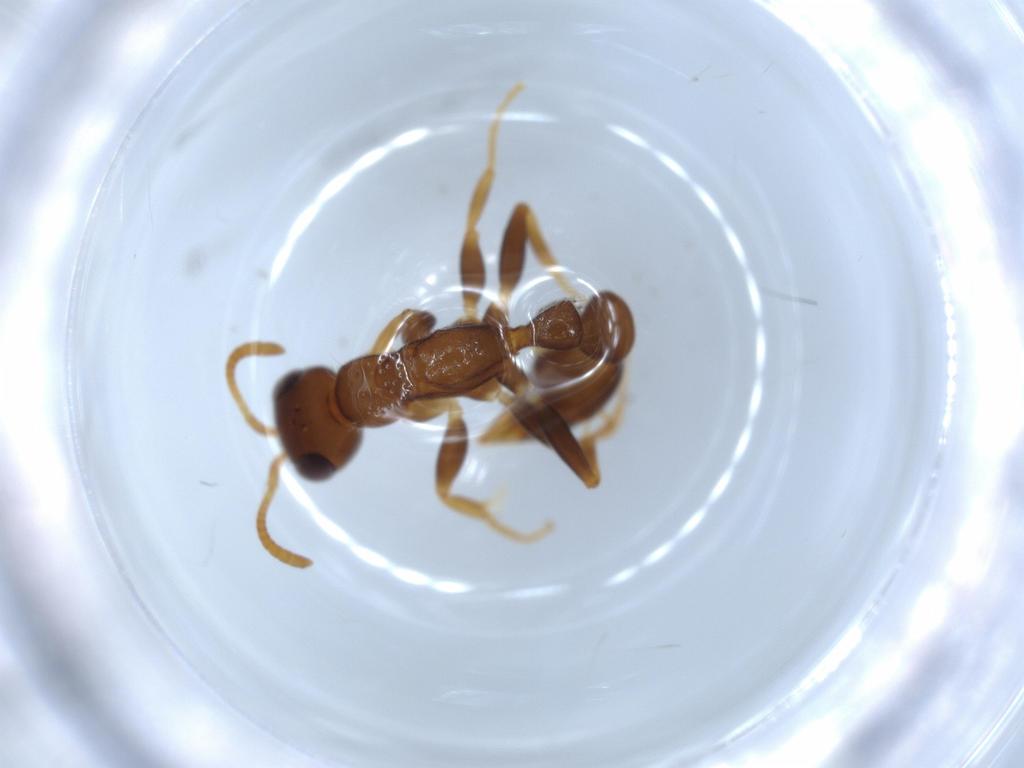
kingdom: Animalia
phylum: Arthropoda
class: Insecta
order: Hymenoptera
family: Formicidae
